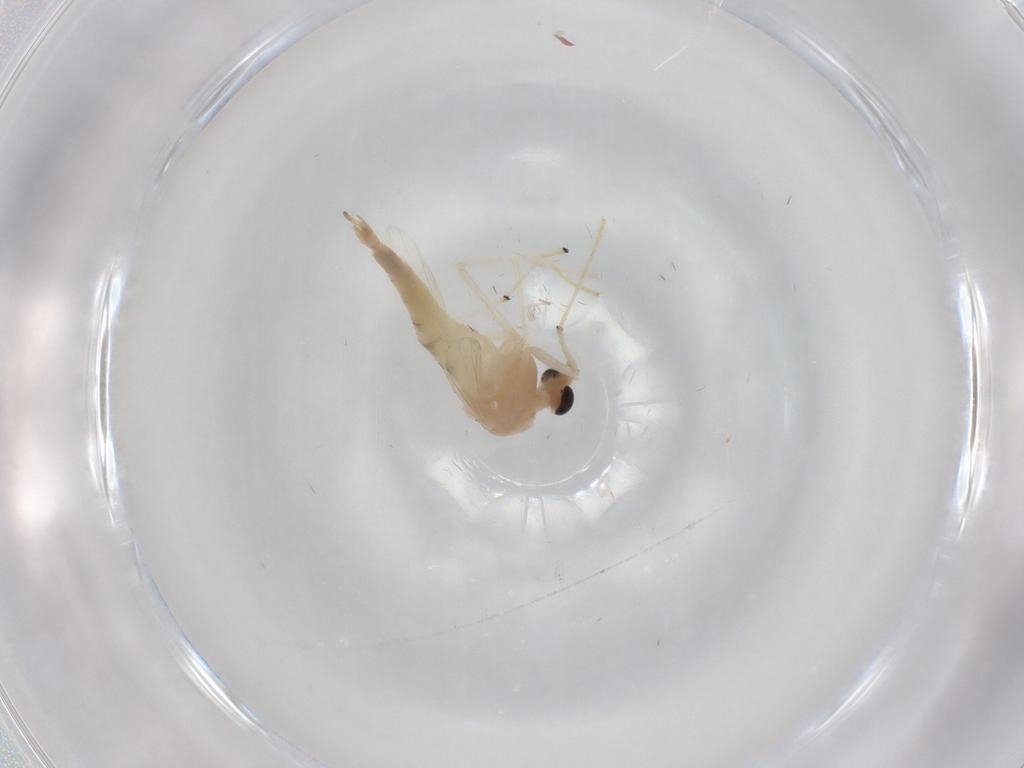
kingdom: Animalia
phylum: Arthropoda
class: Insecta
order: Diptera
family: Chironomidae
